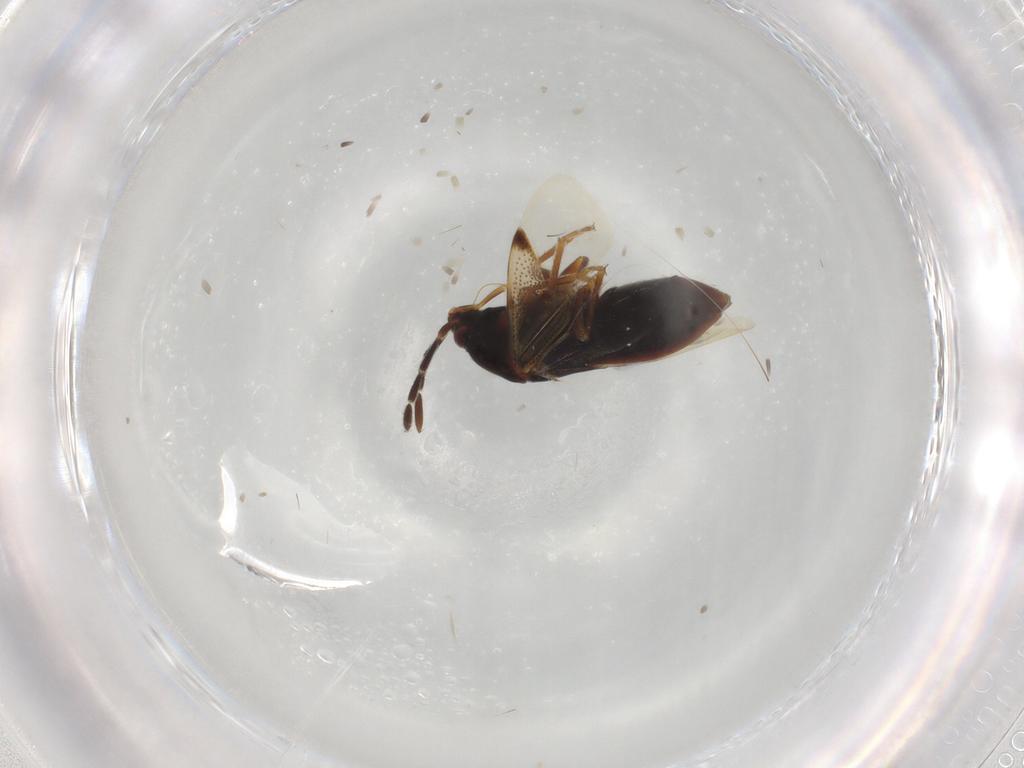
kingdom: Animalia
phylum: Arthropoda
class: Insecta
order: Hemiptera
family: Rhyparochromidae
